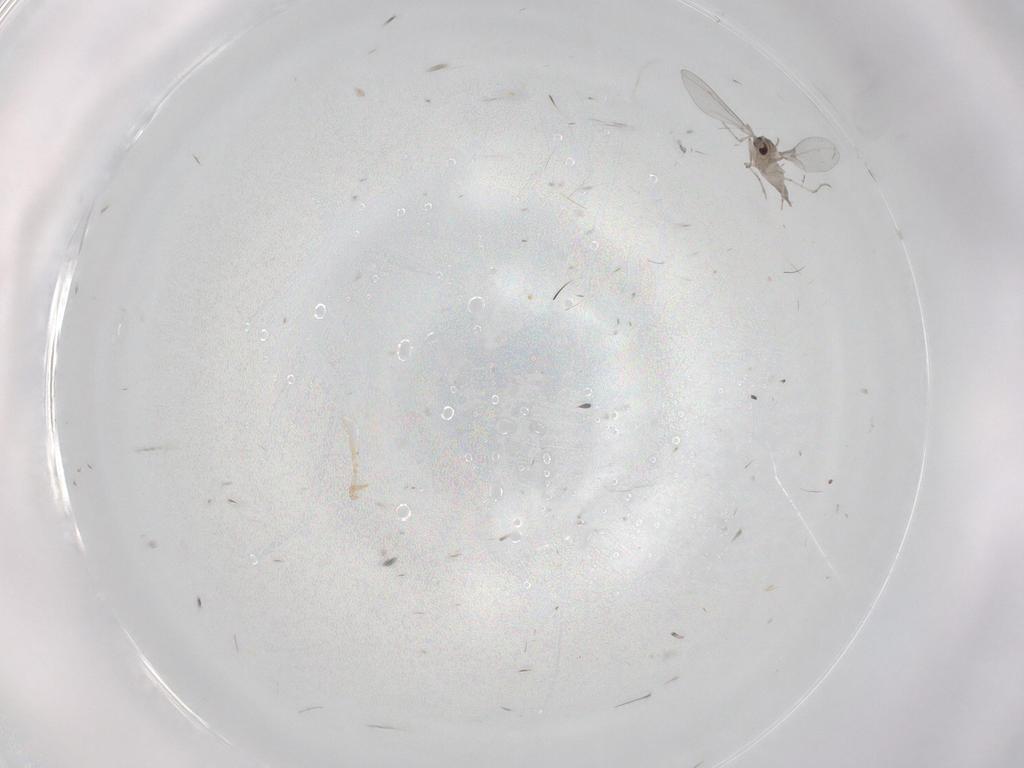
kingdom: Animalia
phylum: Arthropoda
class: Insecta
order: Diptera
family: Cecidomyiidae
